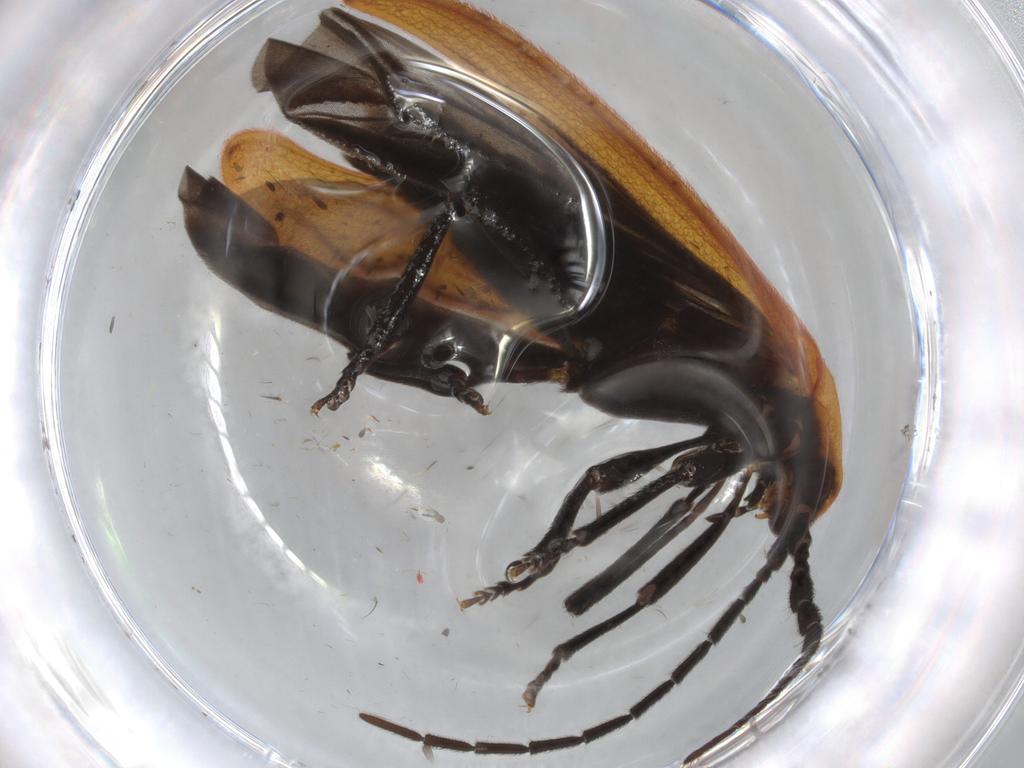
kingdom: Animalia
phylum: Arthropoda
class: Insecta
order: Coleoptera
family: Lycidae
